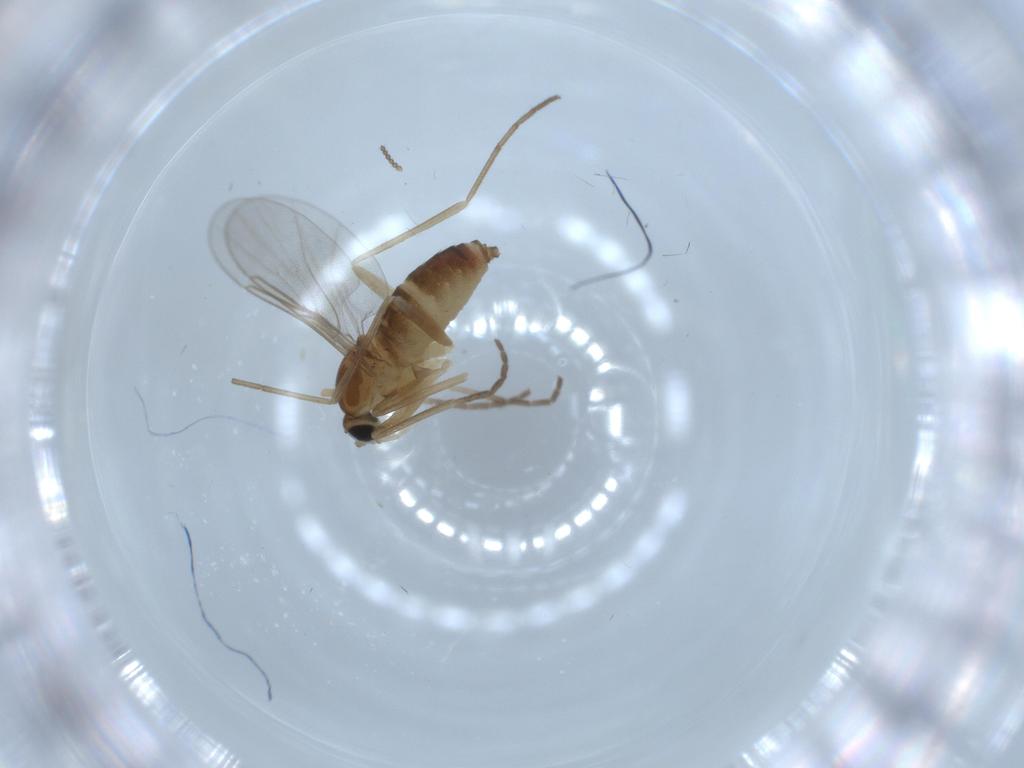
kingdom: Animalia
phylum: Arthropoda
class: Insecta
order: Diptera
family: Cecidomyiidae
